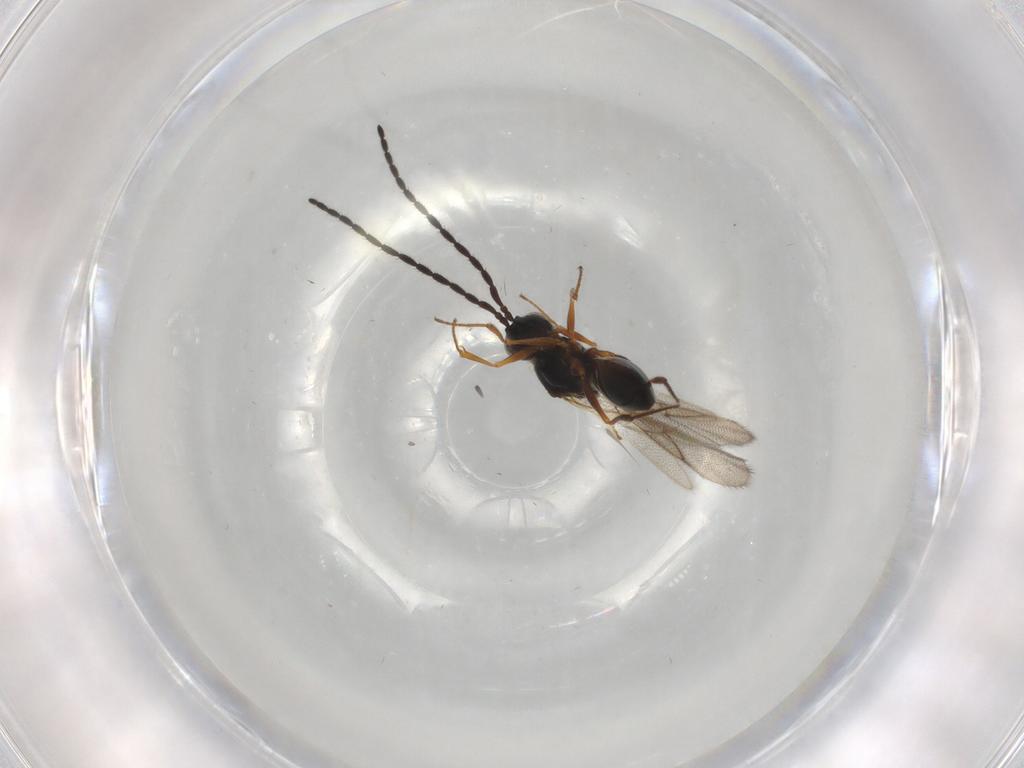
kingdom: Animalia
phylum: Arthropoda
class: Insecta
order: Hymenoptera
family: Figitidae
